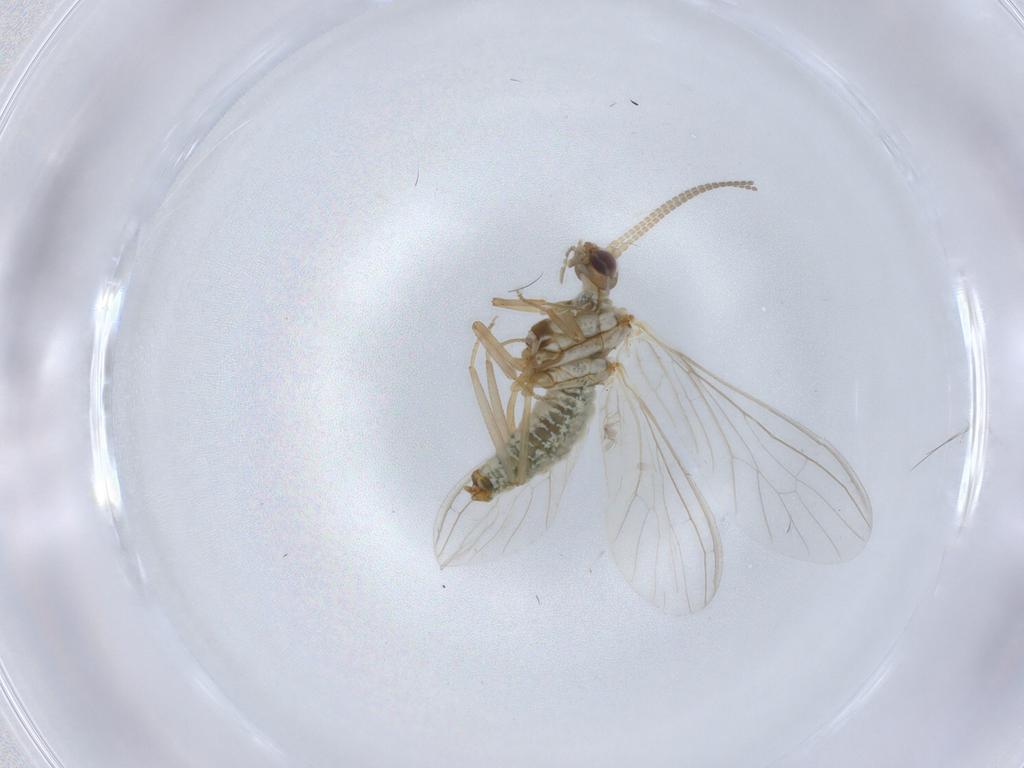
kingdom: Animalia
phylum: Arthropoda
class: Insecta
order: Neuroptera
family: Coniopterygidae
